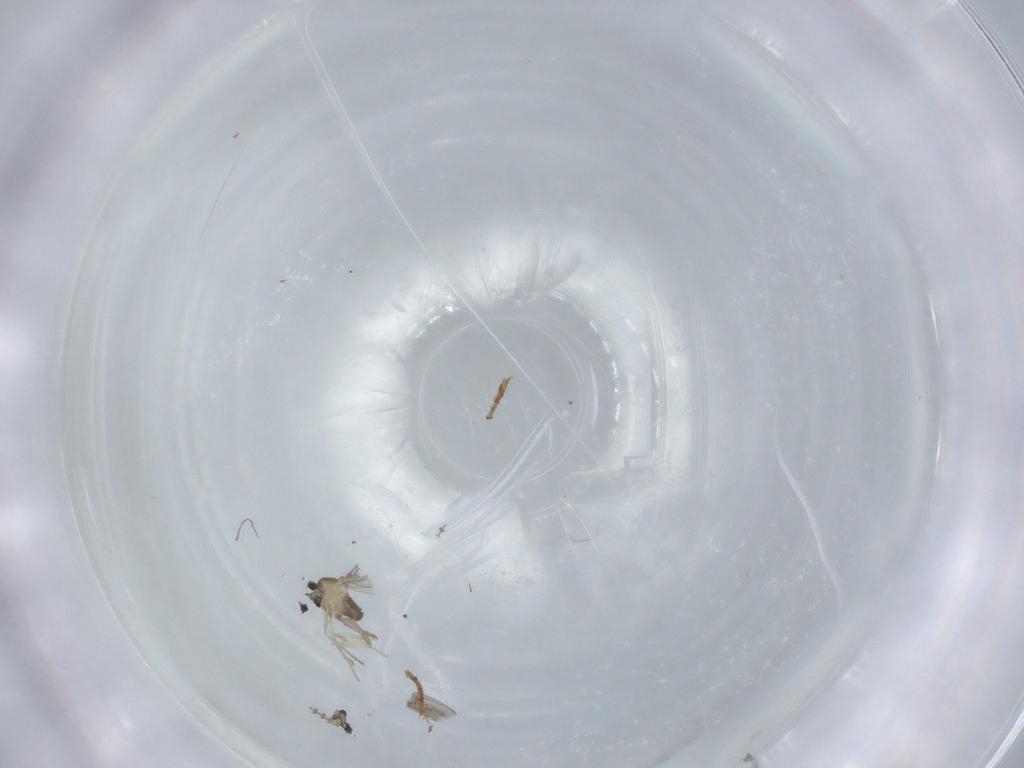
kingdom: Animalia
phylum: Arthropoda
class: Insecta
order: Diptera
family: Cecidomyiidae
